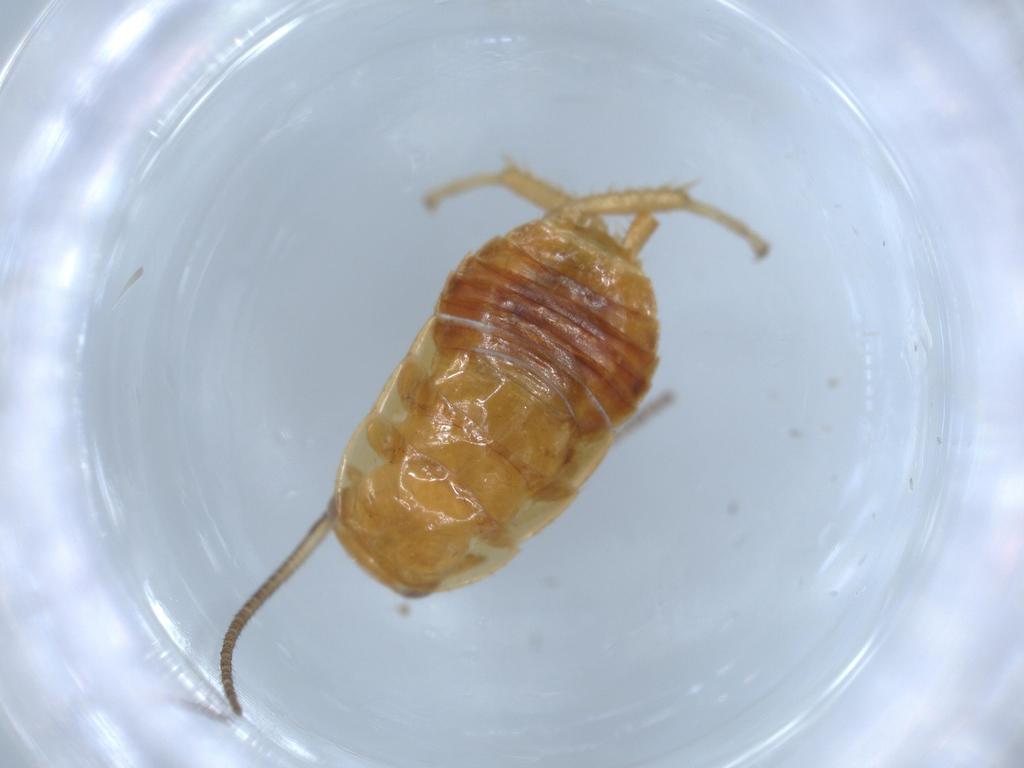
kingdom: Animalia
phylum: Arthropoda
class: Insecta
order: Blattodea
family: Ectobiidae
